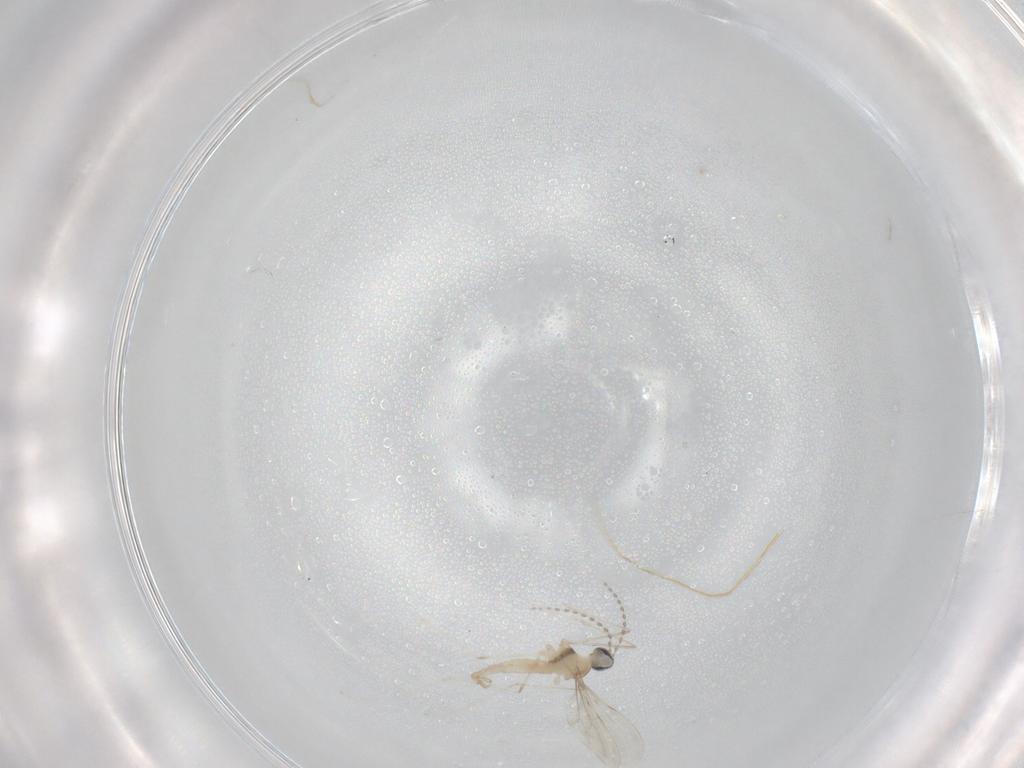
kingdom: Animalia
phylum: Arthropoda
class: Insecta
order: Diptera
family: Cecidomyiidae
